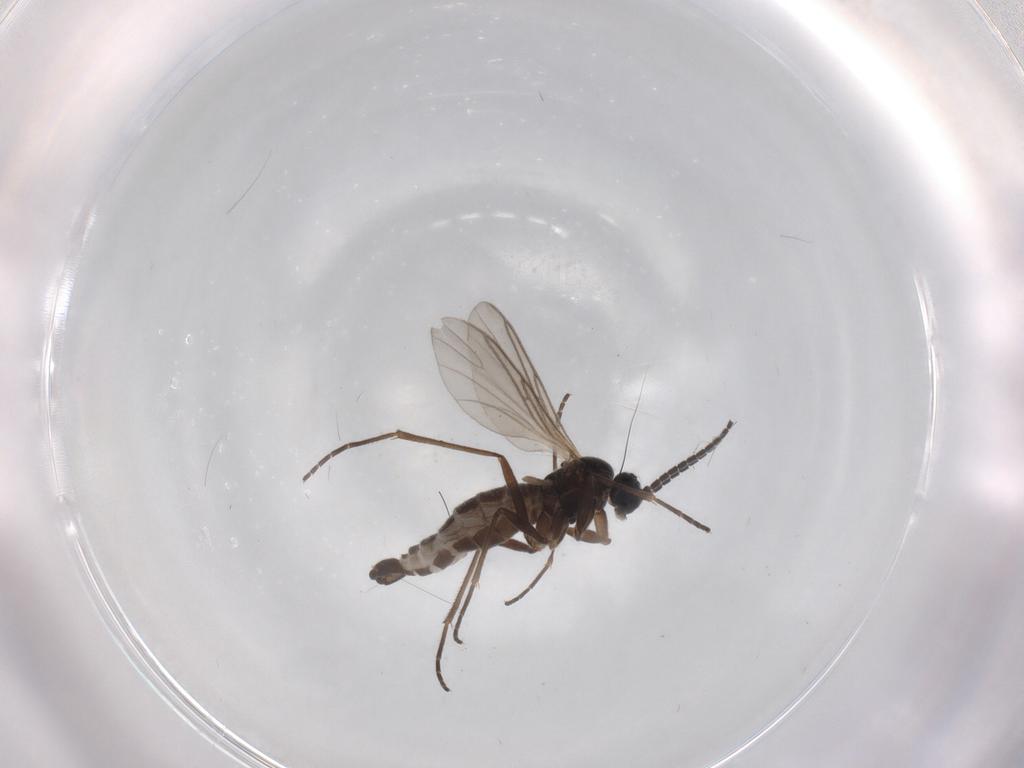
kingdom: Animalia
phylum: Arthropoda
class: Insecta
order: Diptera
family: Sciaridae
